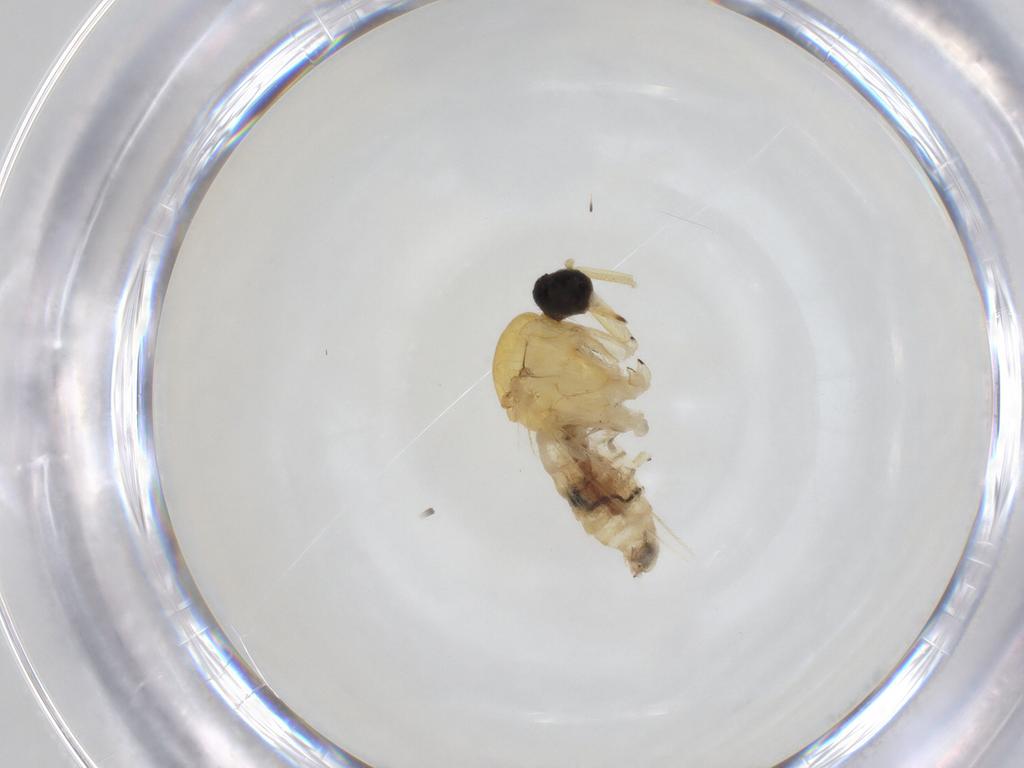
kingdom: Animalia
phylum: Arthropoda
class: Insecta
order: Diptera
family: Hybotidae
